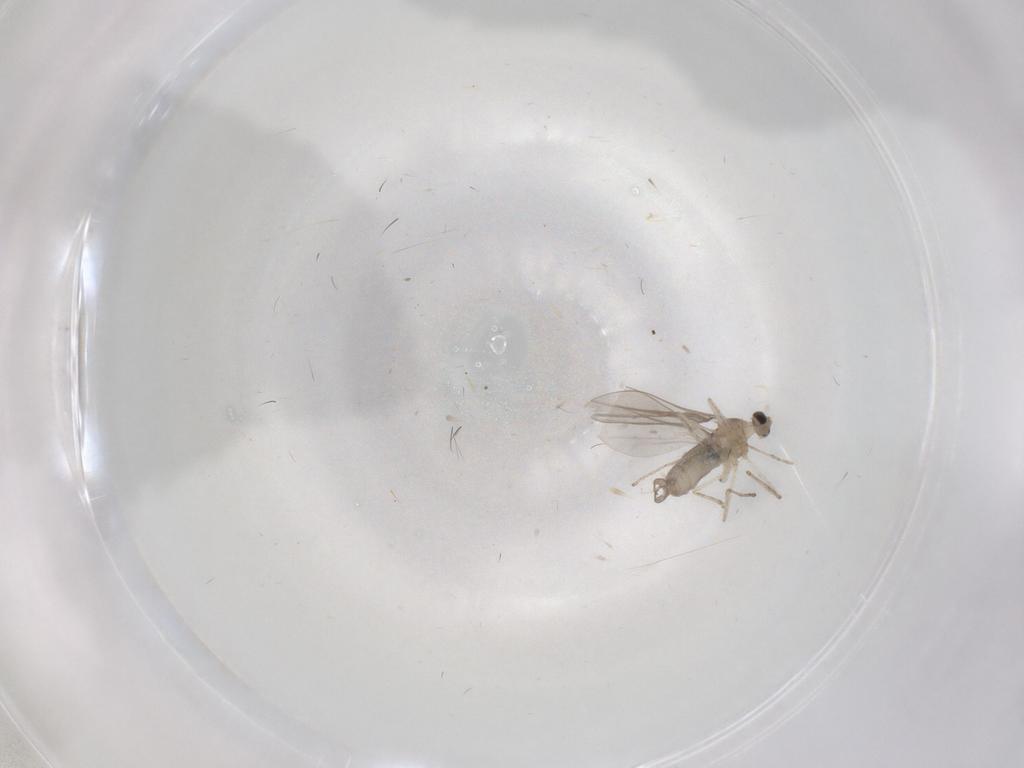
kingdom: Animalia
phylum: Arthropoda
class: Insecta
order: Diptera
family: Cecidomyiidae
